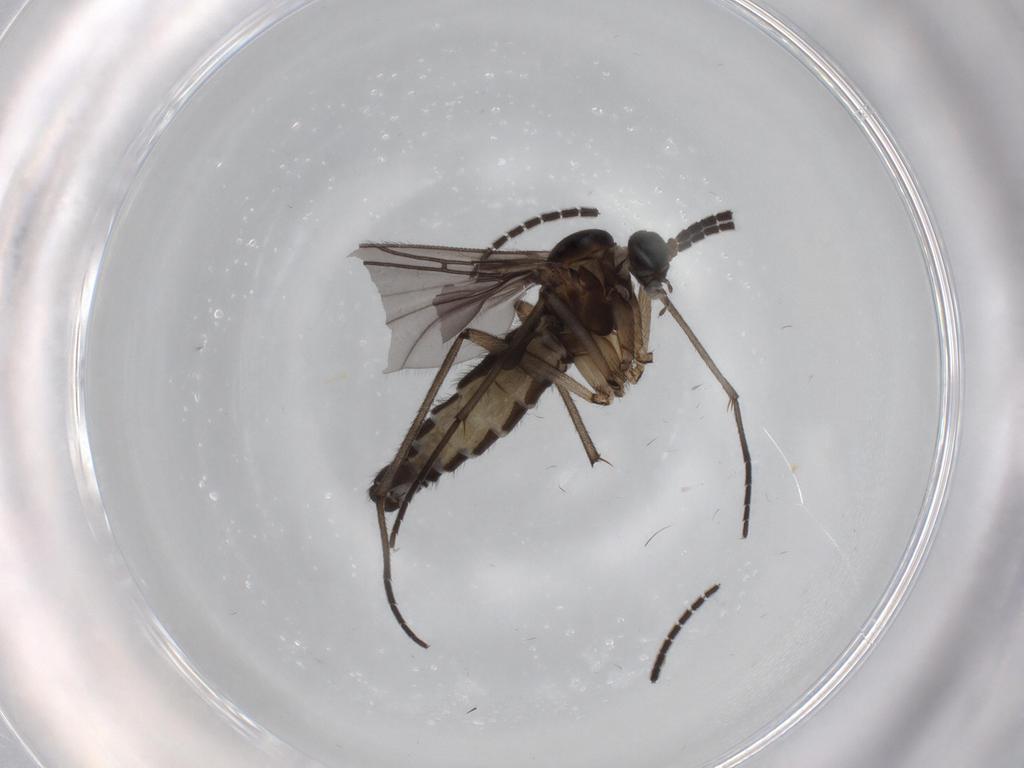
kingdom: Animalia
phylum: Arthropoda
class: Insecta
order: Diptera
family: Sciaridae
